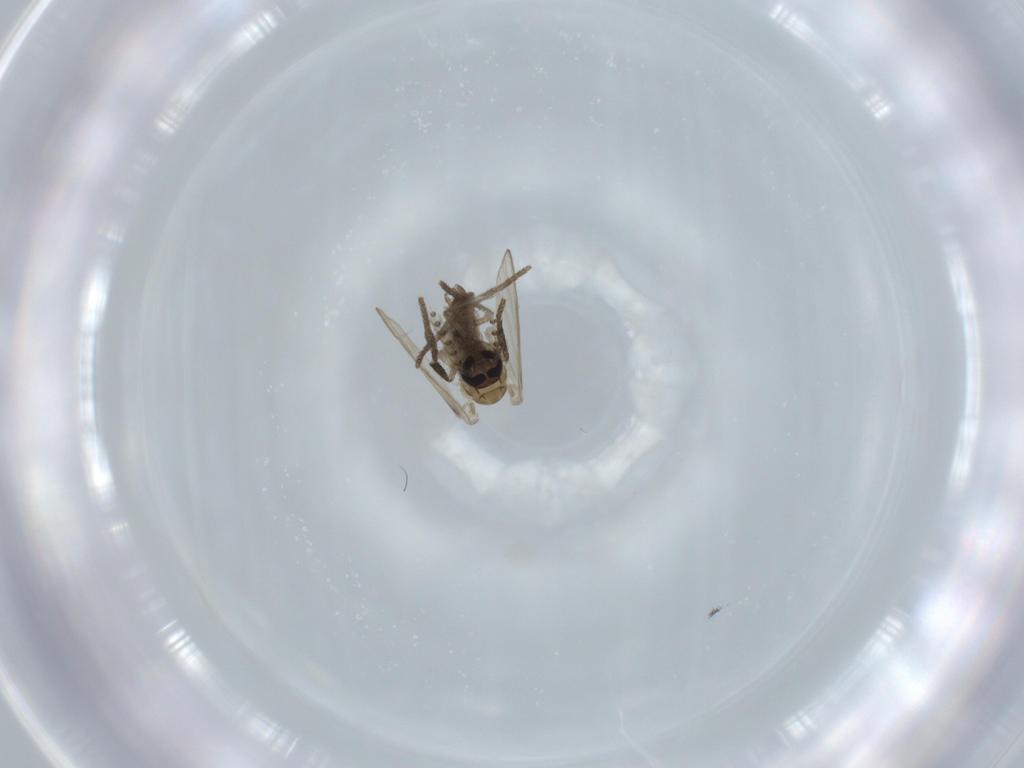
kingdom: Animalia
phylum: Arthropoda
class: Insecta
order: Diptera
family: Psychodidae
